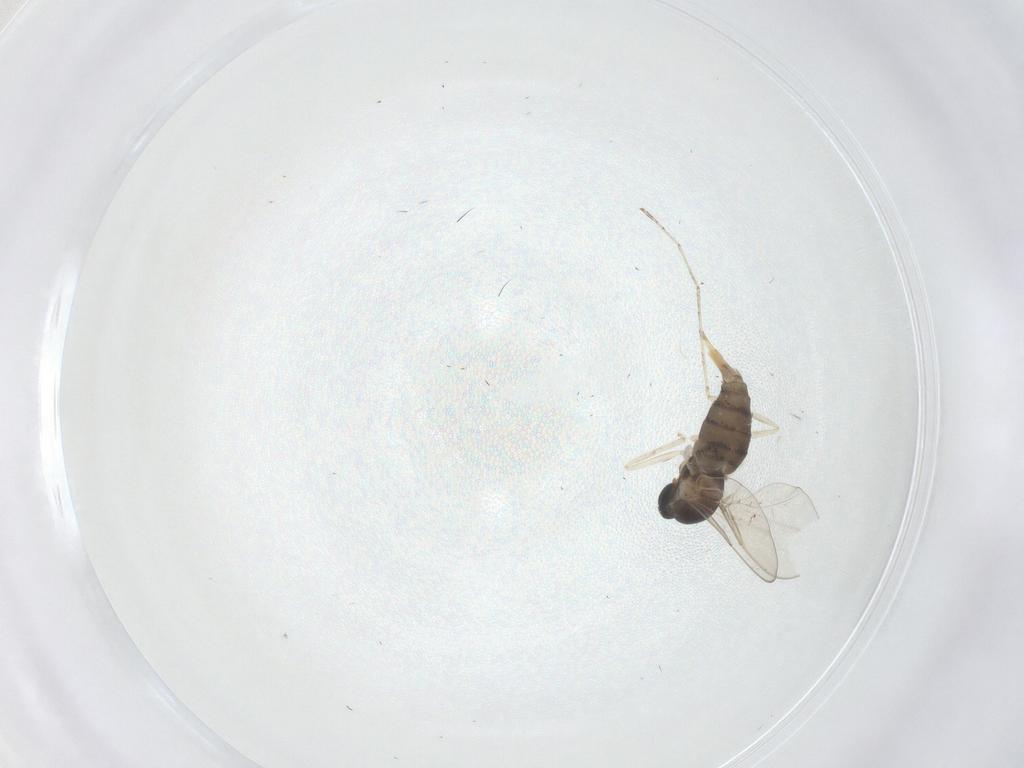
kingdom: Animalia
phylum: Arthropoda
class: Insecta
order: Diptera
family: Cecidomyiidae
